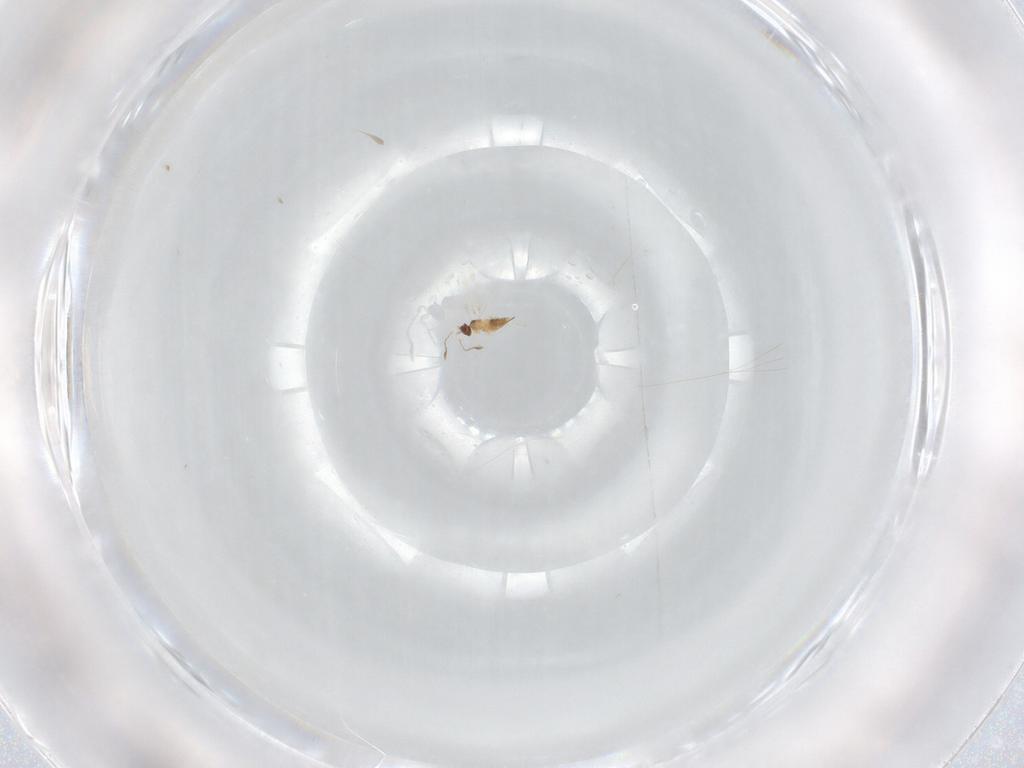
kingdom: Animalia
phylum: Arthropoda
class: Insecta
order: Hymenoptera
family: Mymaridae
